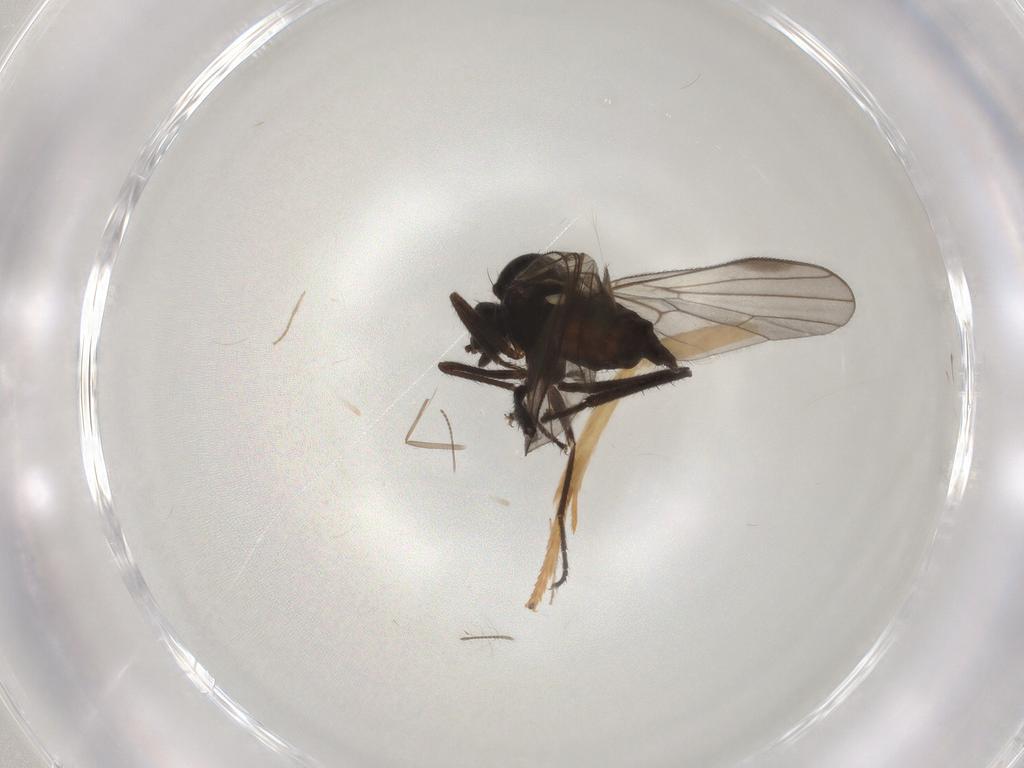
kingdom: Animalia
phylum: Arthropoda
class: Insecta
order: Diptera
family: Hybotidae
